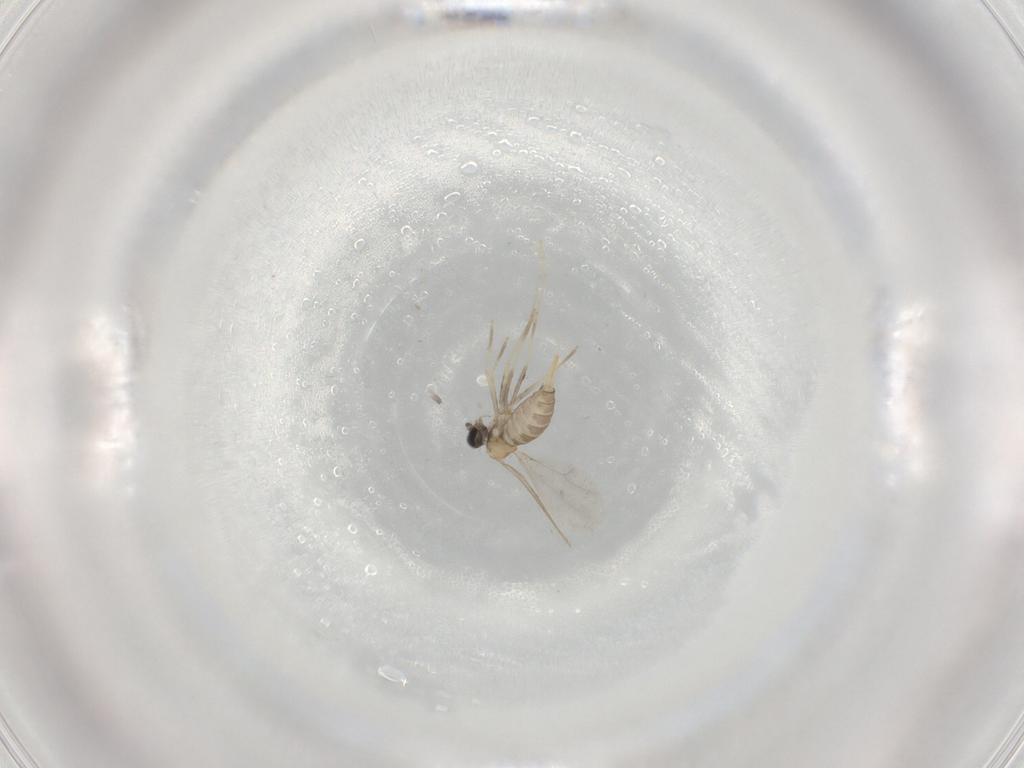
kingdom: Animalia
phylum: Arthropoda
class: Insecta
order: Diptera
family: Cecidomyiidae
